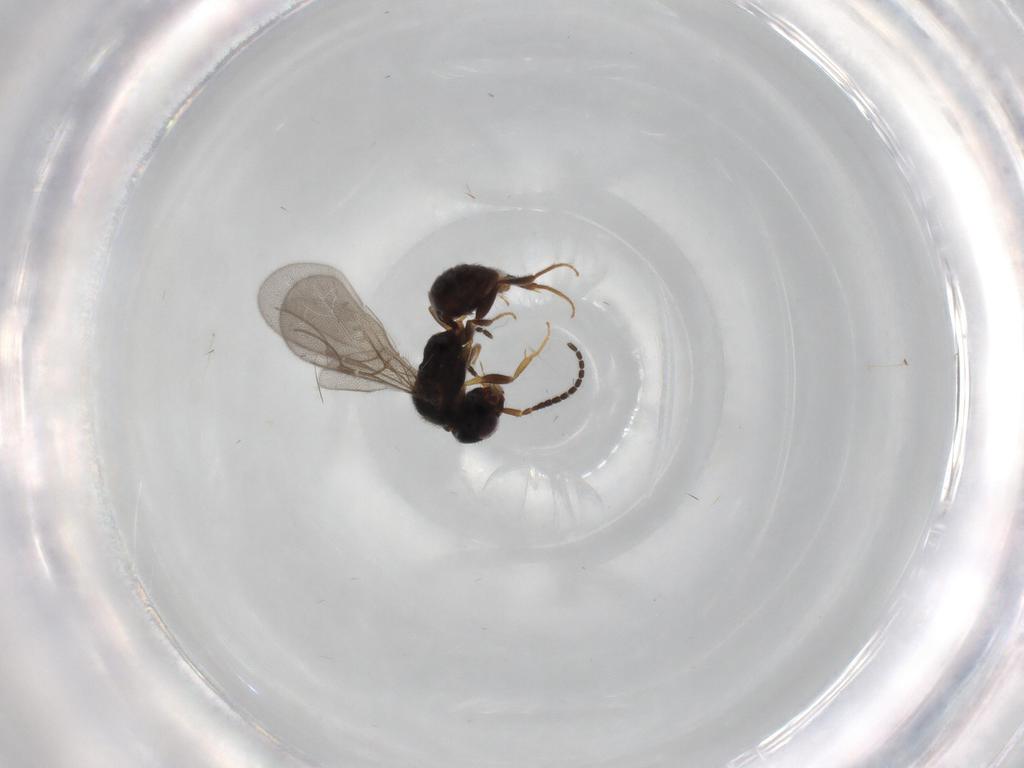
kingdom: Animalia
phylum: Arthropoda
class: Insecta
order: Hymenoptera
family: Bethylidae
